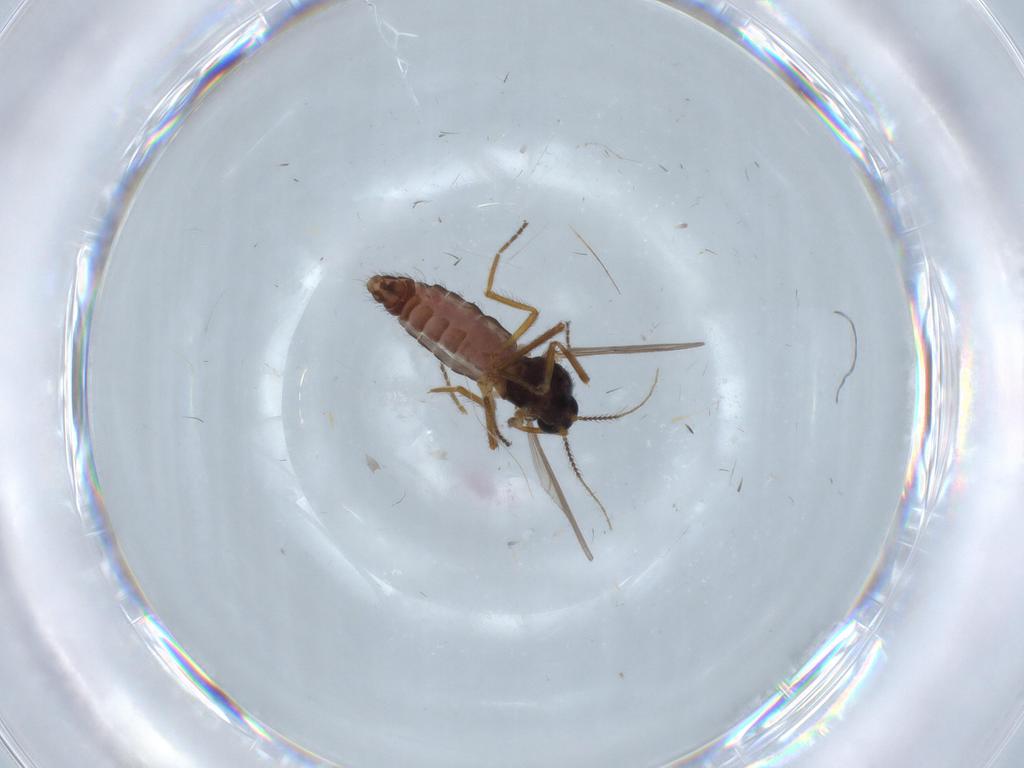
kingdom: Animalia
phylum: Arthropoda
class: Insecta
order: Diptera
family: Ceratopogonidae
